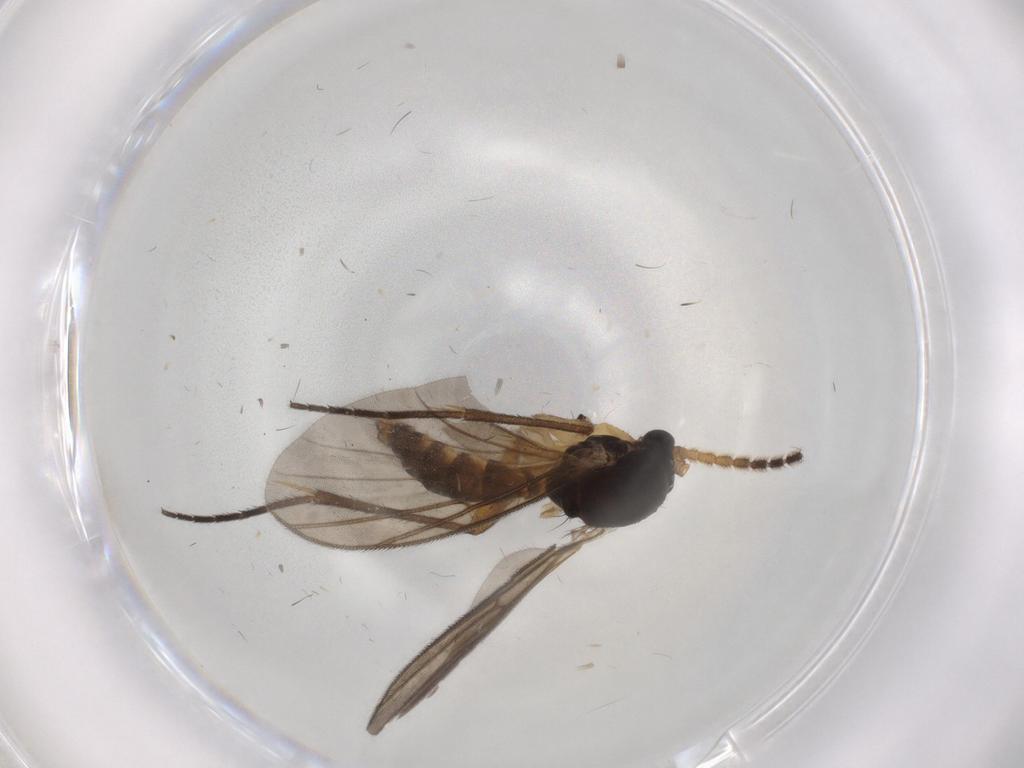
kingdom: Animalia
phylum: Arthropoda
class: Insecta
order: Diptera
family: Mycetophilidae
